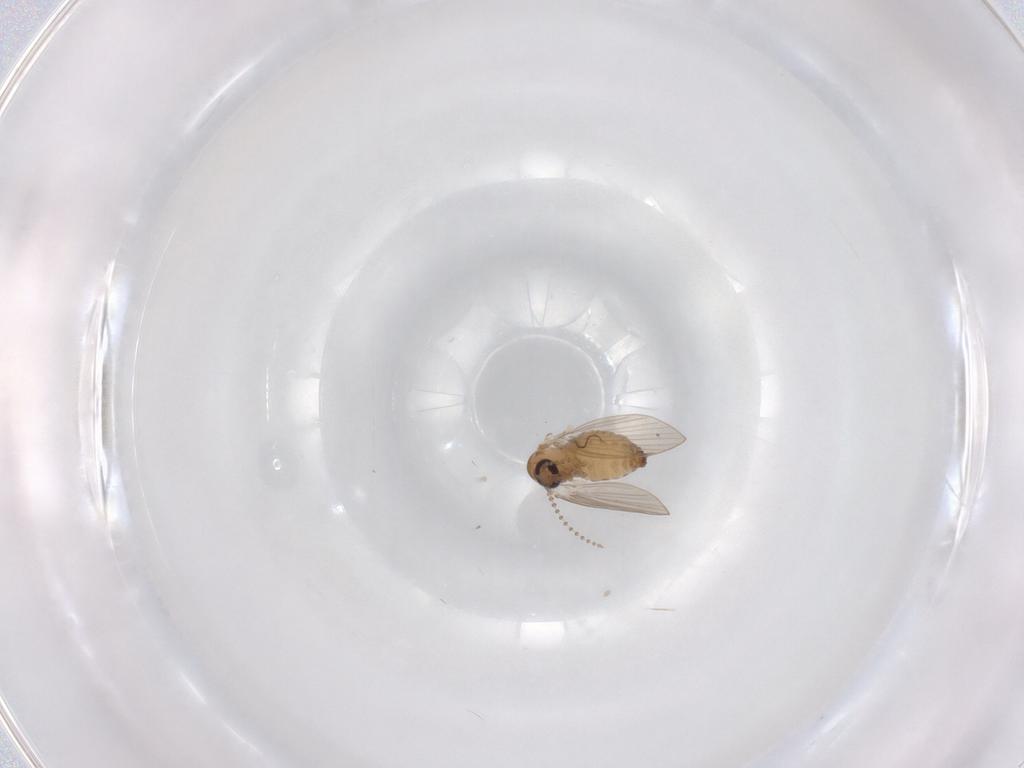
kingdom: Animalia
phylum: Arthropoda
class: Insecta
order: Diptera
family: Psychodidae
